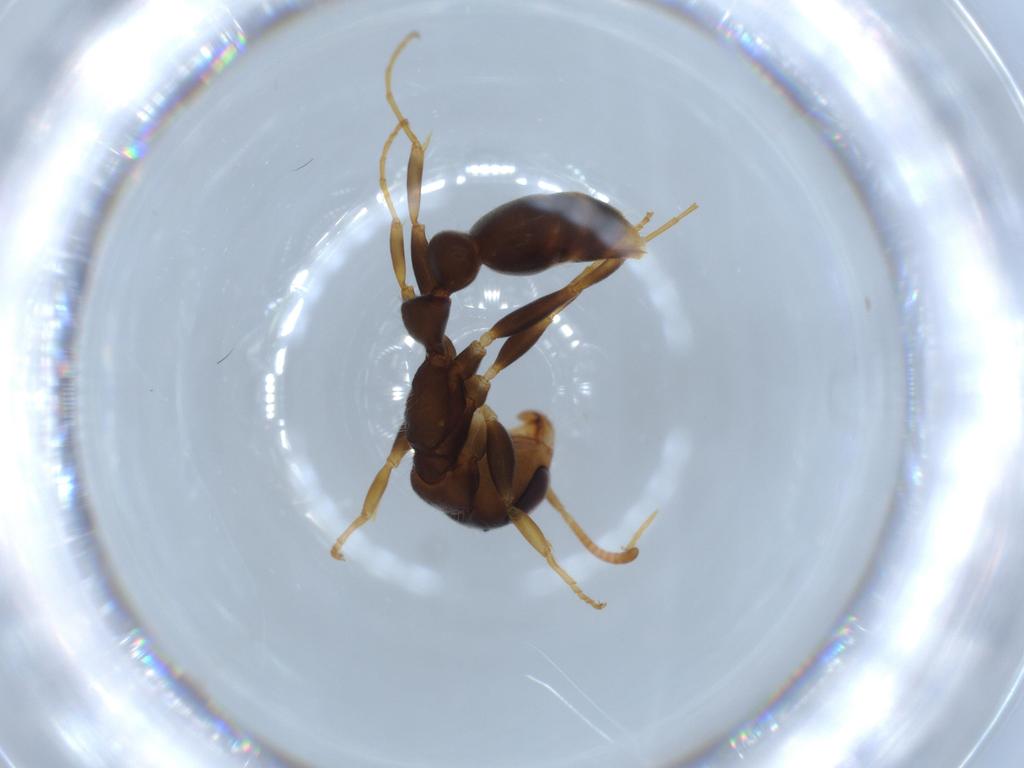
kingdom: Animalia
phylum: Arthropoda
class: Insecta
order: Hymenoptera
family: Formicidae
